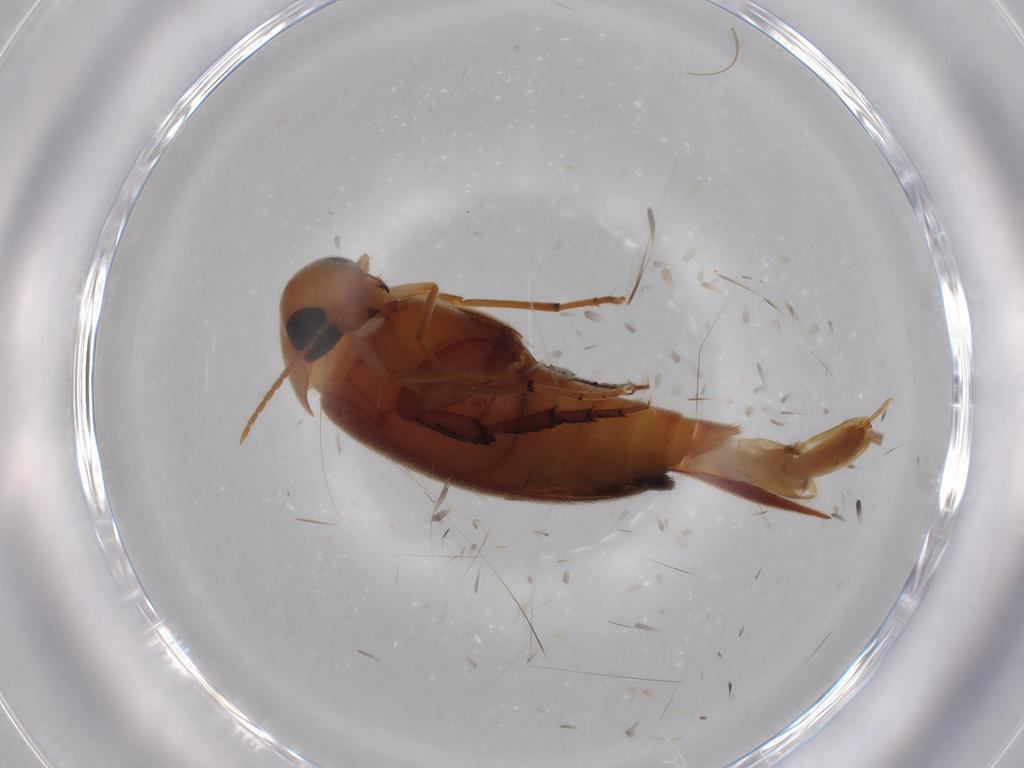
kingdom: Animalia
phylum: Arthropoda
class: Insecta
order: Coleoptera
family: Mordellidae
